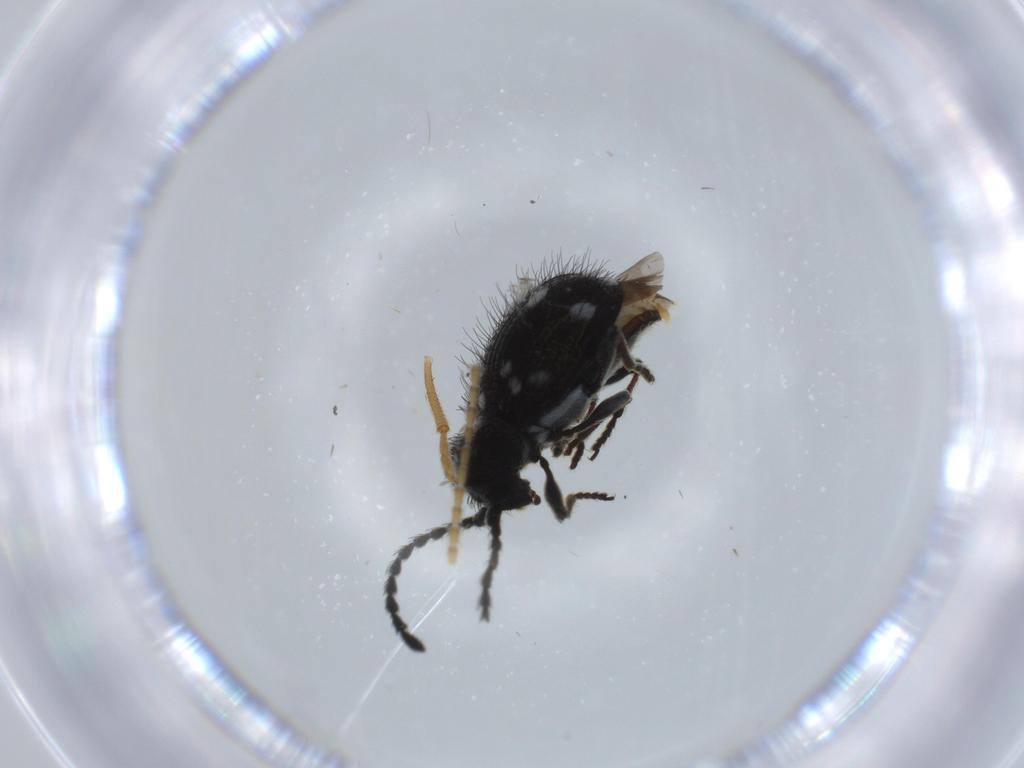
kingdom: Animalia
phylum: Arthropoda
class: Insecta
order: Coleoptera
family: Chrysomelidae
